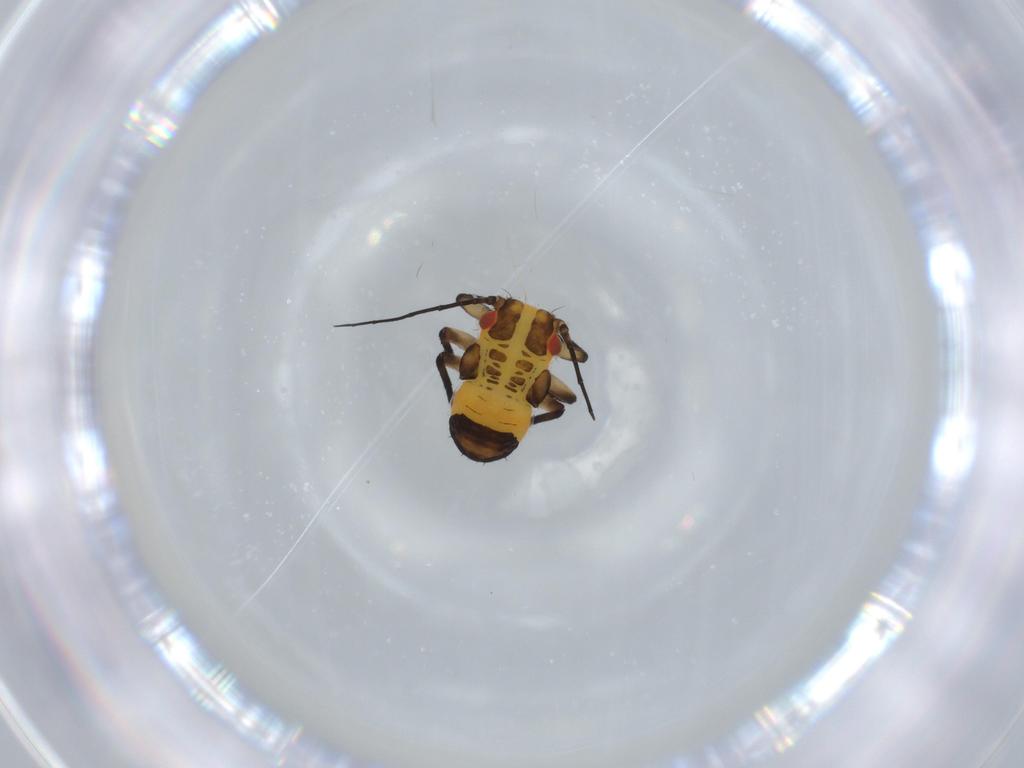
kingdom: Animalia
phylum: Arthropoda
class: Insecta
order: Hemiptera
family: Psyllidae
